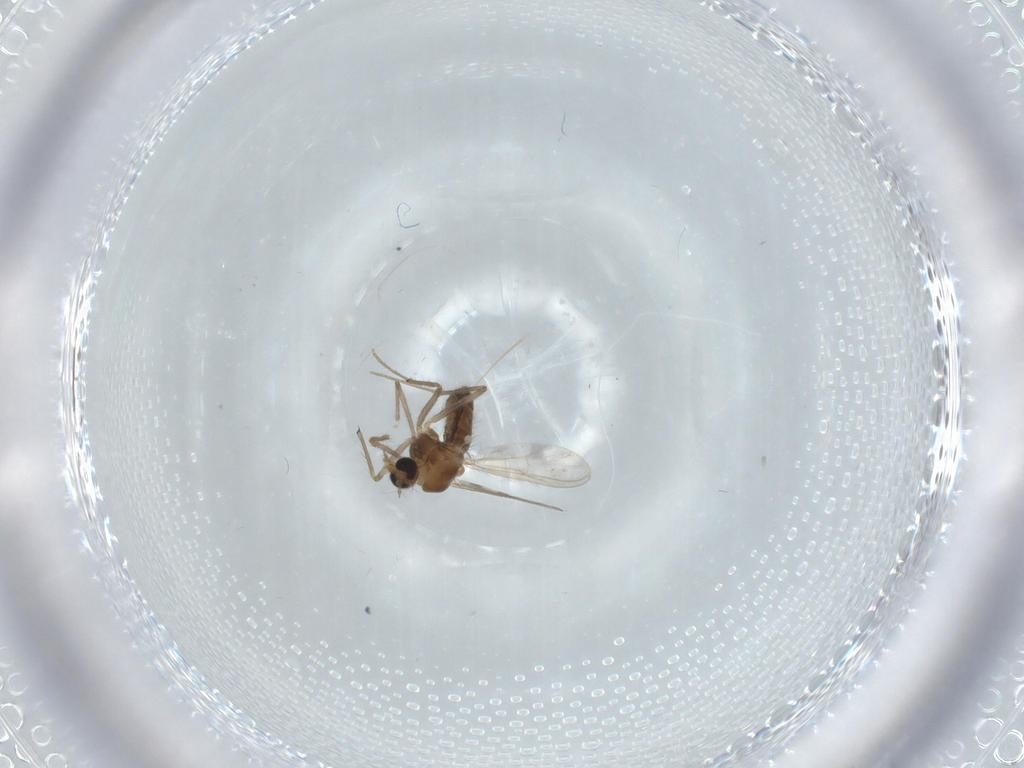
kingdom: Animalia
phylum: Arthropoda
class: Insecta
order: Diptera
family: Chironomidae
